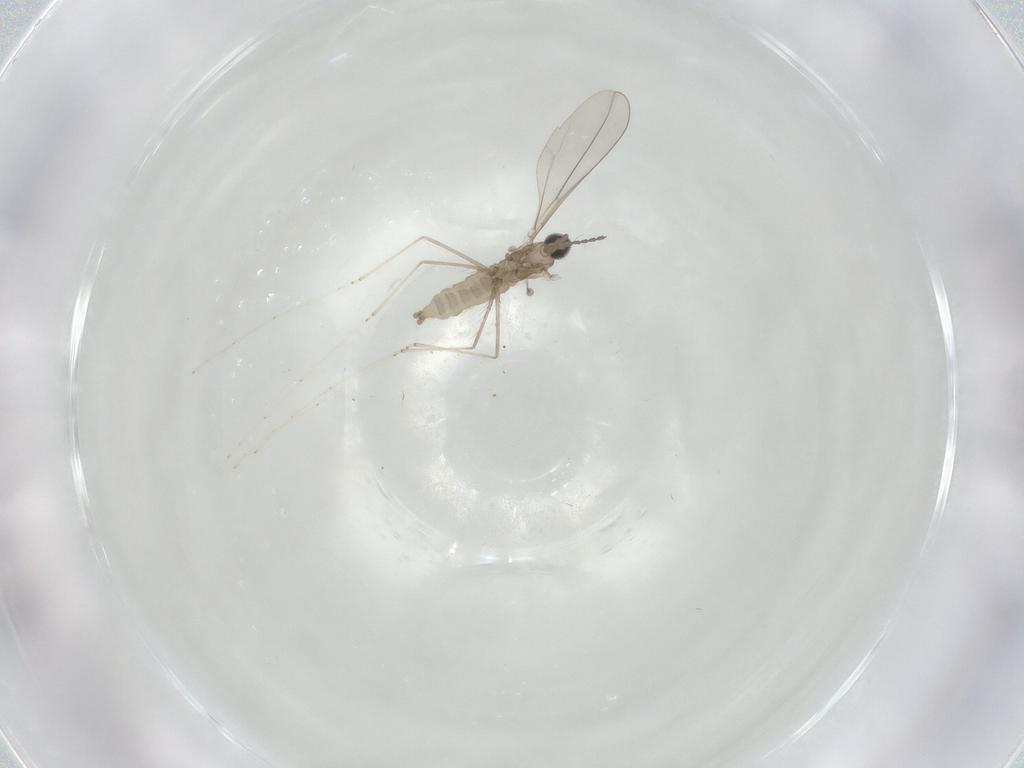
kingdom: Animalia
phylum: Arthropoda
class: Insecta
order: Diptera
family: Cecidomyiidae
